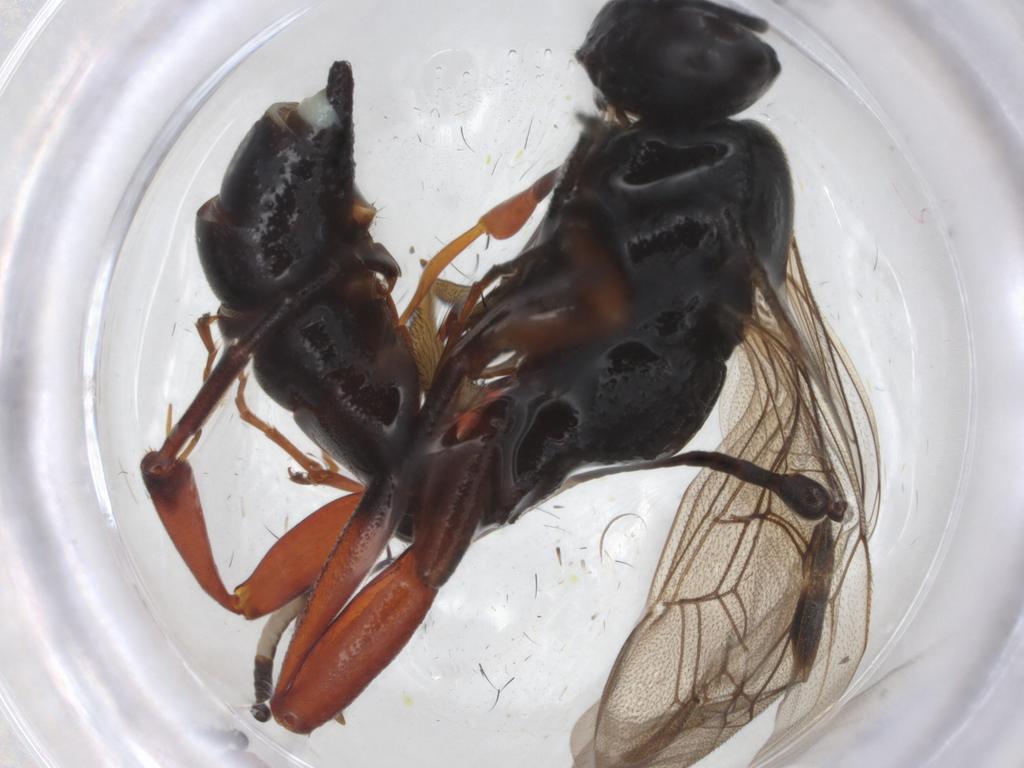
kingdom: Animalia
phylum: Arthropoda
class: Insecta
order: Hymenoptera
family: Ichneumonidae
